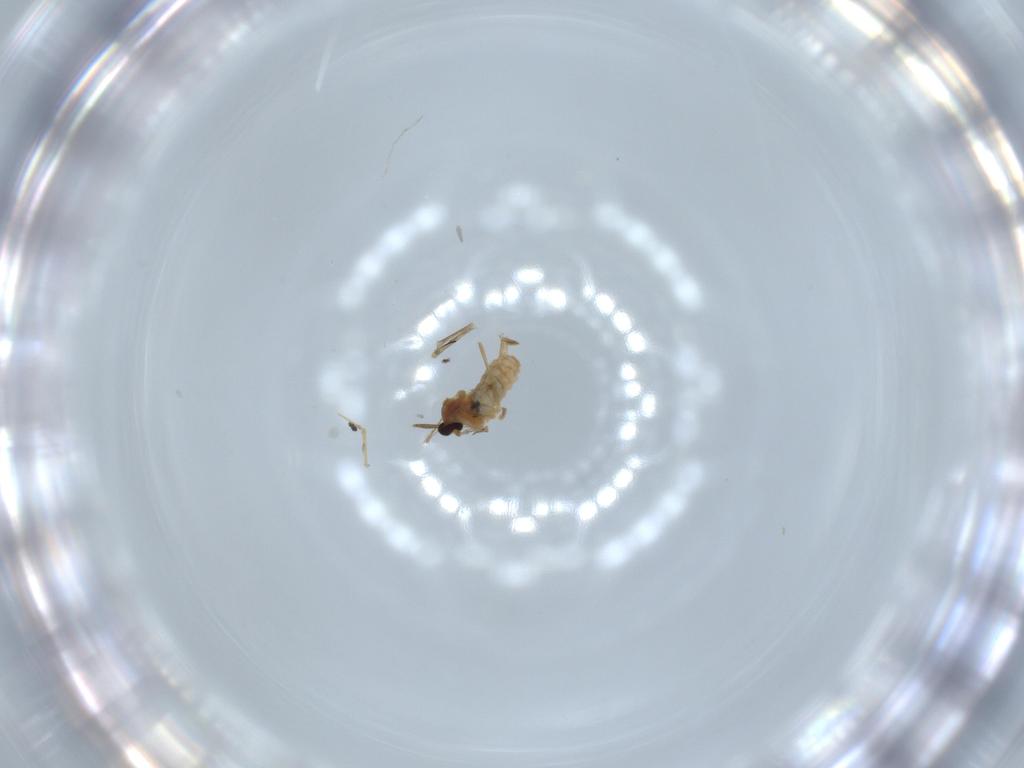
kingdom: Animalia
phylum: Arthropoda
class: Insecta
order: Diptera
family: Cecidomyiidae
